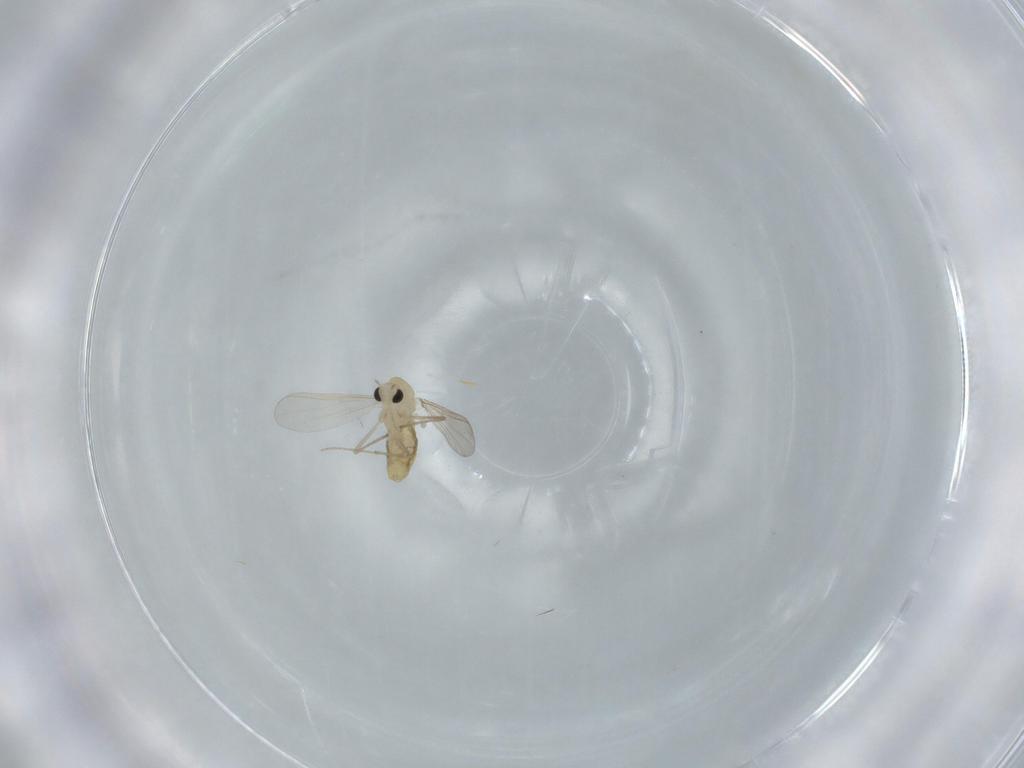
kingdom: Animalia
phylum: Arthropoda
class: Insecta
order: Diptera
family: Chironomidae
